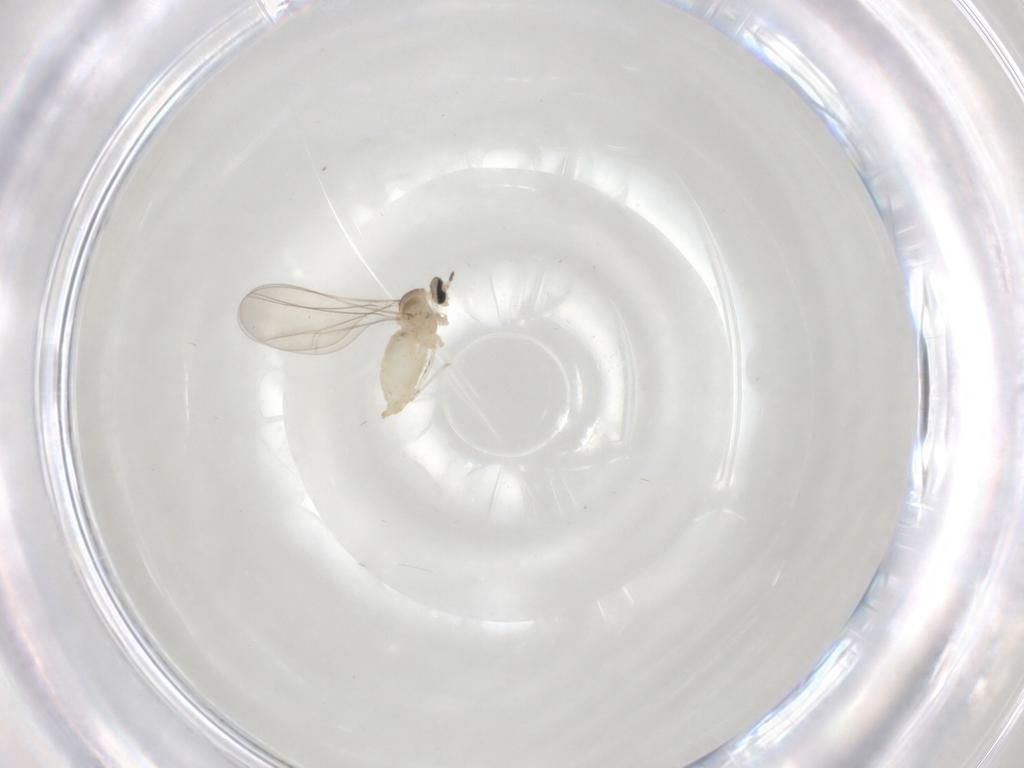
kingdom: Animalia
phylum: Arthropoda
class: Insecta
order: Diptera
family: Cecidomyiidae
